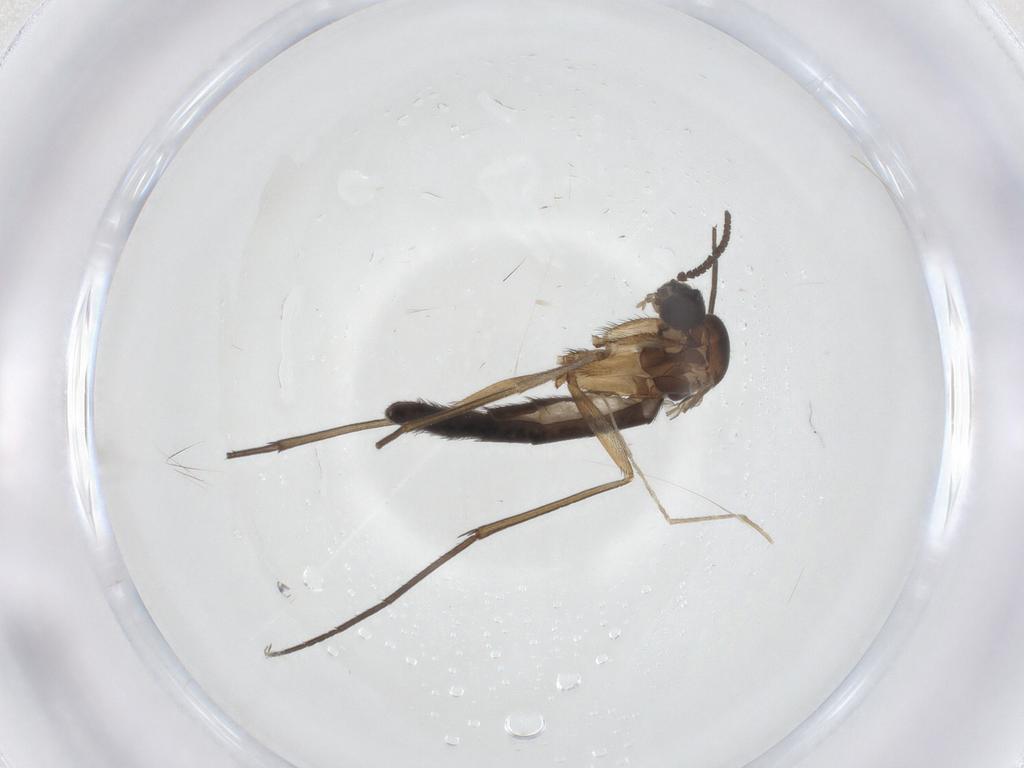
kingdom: Animalia
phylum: Arthropoda
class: Insecta
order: Diptera
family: Keroplatidae
